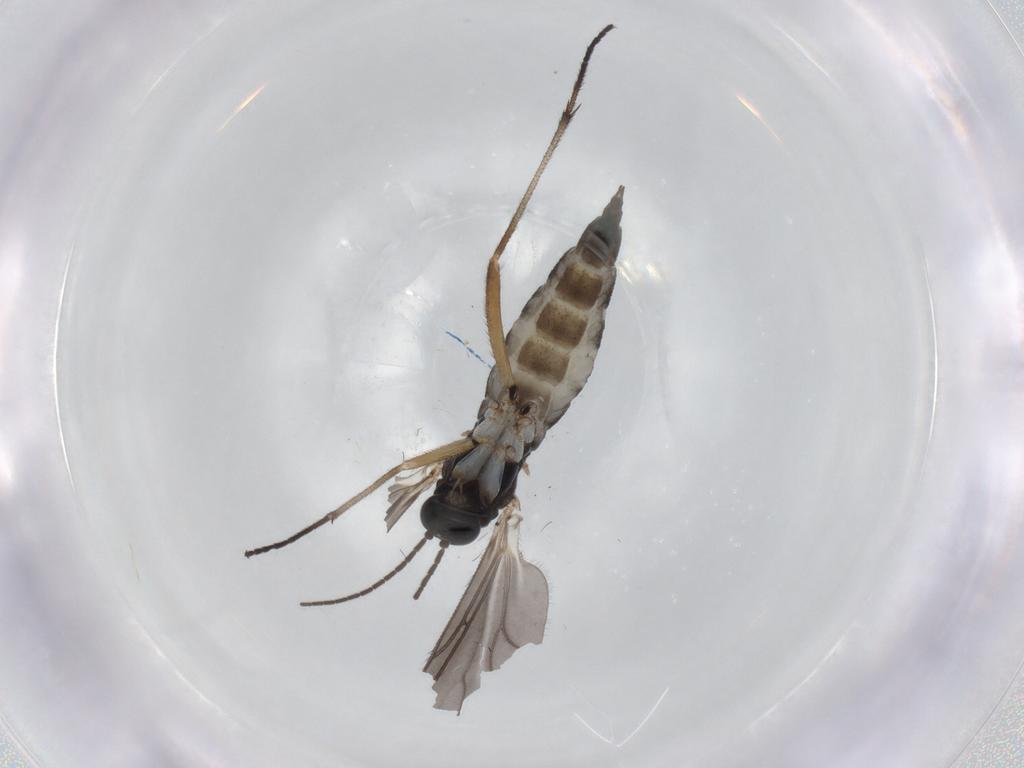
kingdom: Animalia
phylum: Arthropoda
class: Insecta
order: Diptera
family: Sciaridae
